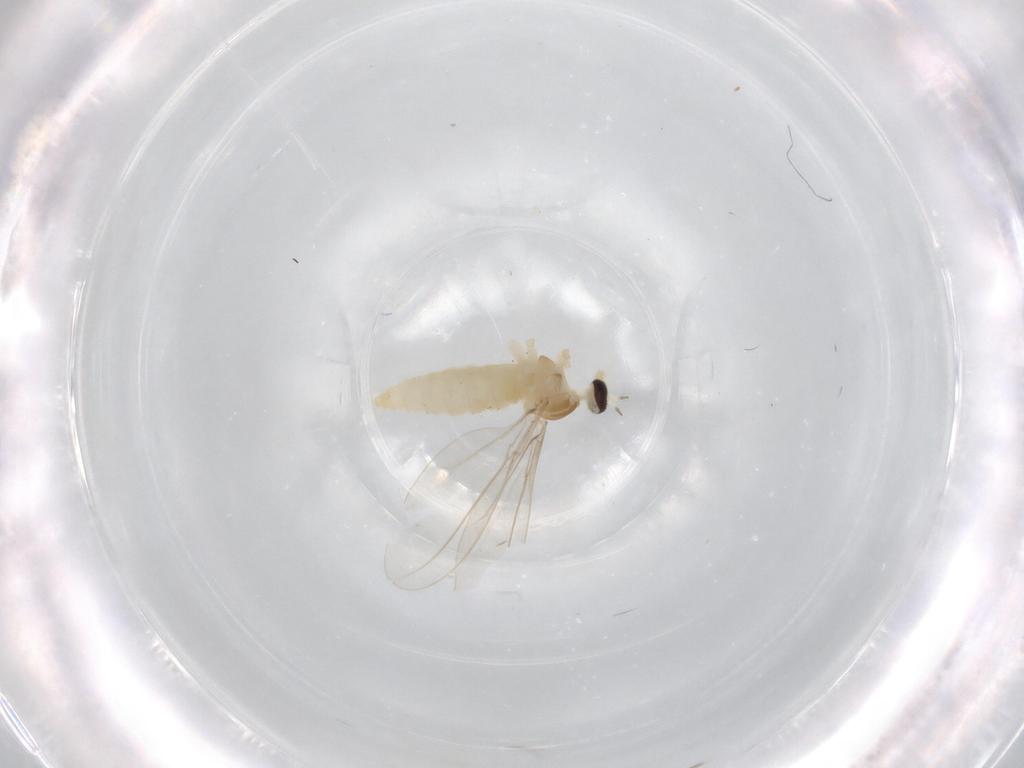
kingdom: Animalia
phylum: Arthropoda
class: Insecta
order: Diptera
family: Cecidomyiidae
